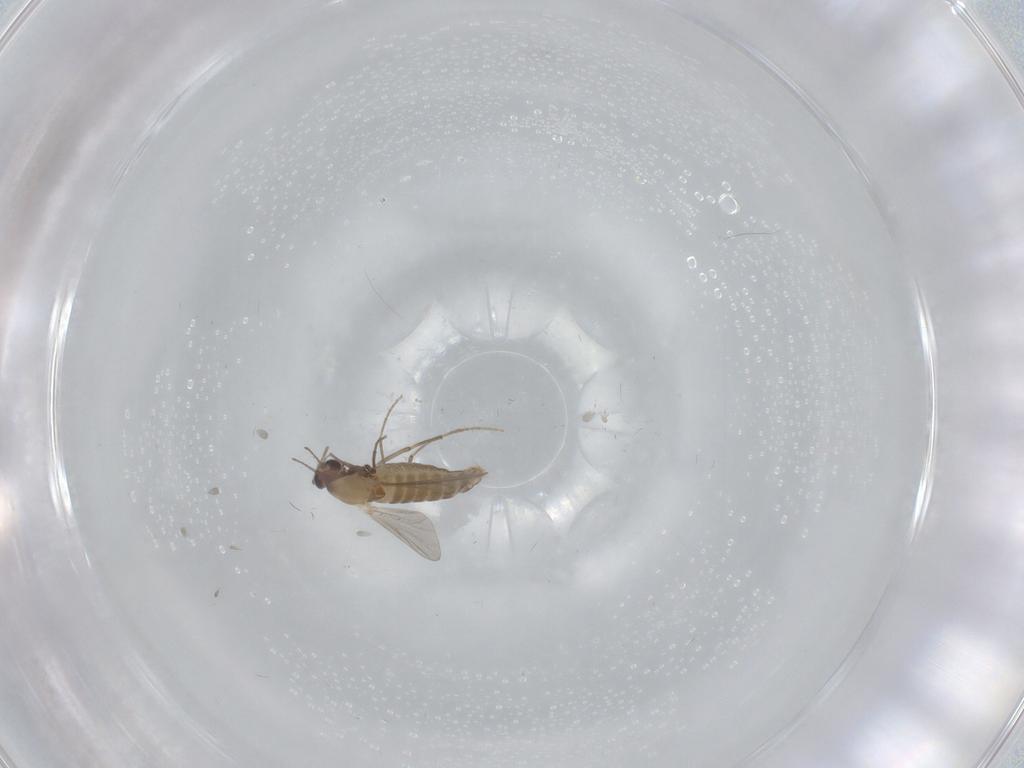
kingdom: Animalia
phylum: Arthropoda
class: Insecta
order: Diptera
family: Chironomidae
